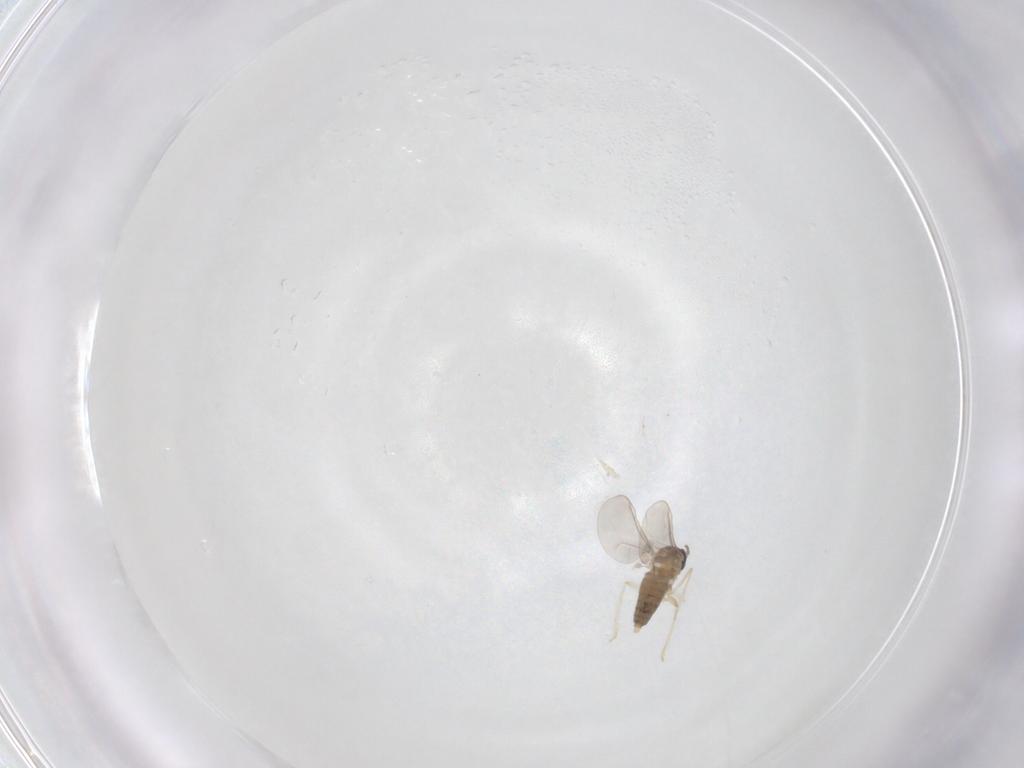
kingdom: Animalia
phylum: Arthropoda
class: Insecta
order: Diptera
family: Cecidomyiidae
